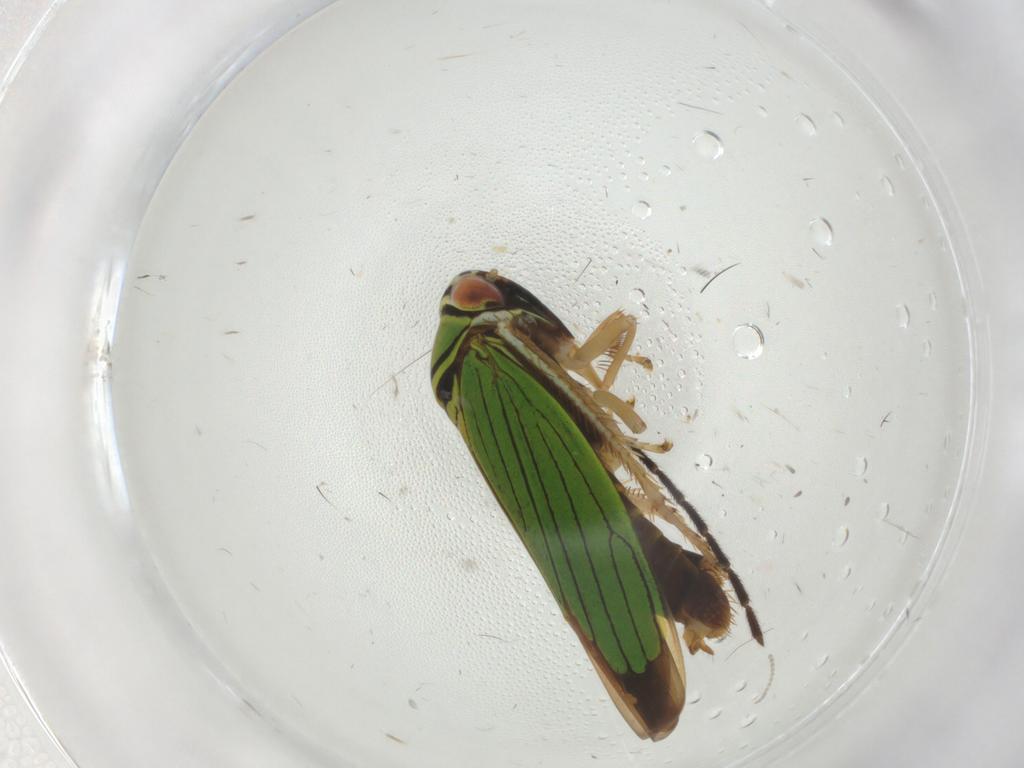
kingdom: Animalia
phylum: Arthropoda
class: Insecta
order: Hemiptera
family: Cicadellidae
